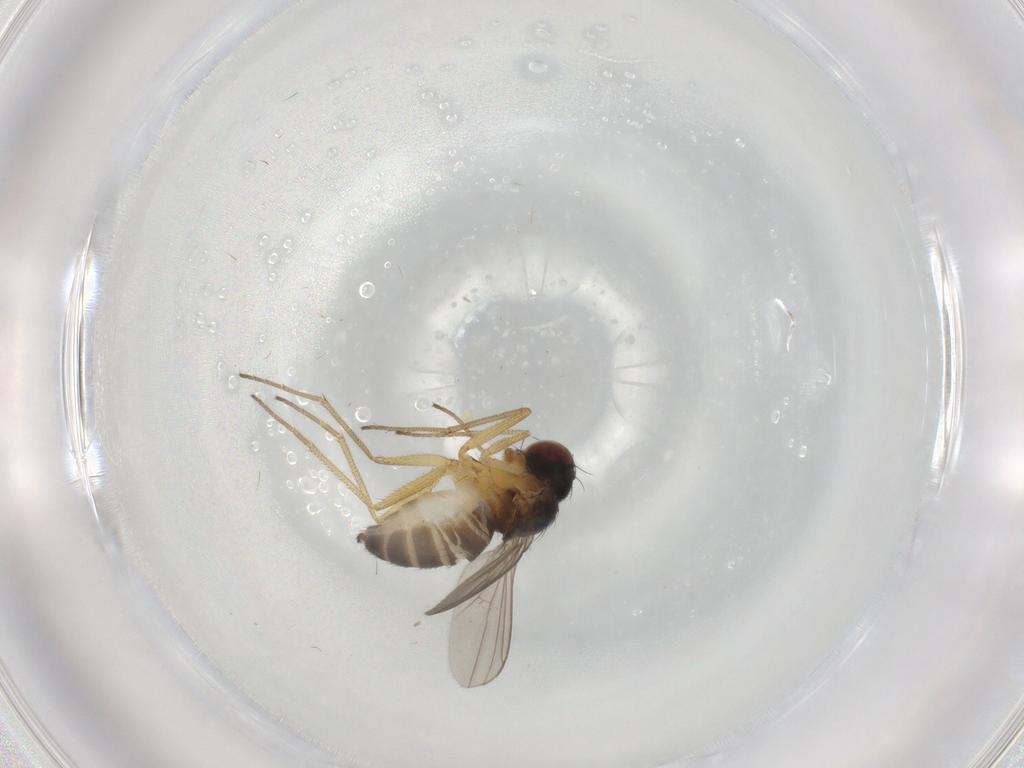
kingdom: Animalia
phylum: Arthropoda
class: Insecta
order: Diptera
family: Dolichopodidae
